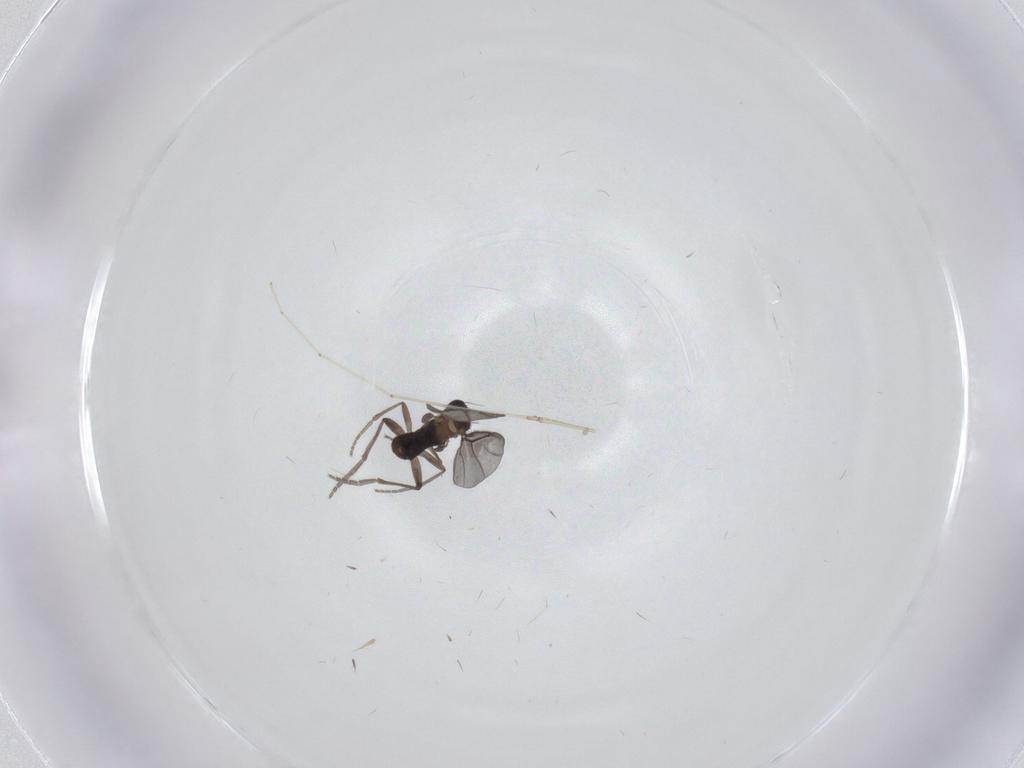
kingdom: Animalia
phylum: Arthropoda
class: Insecta
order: Diptera
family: Cecidomyiidae
